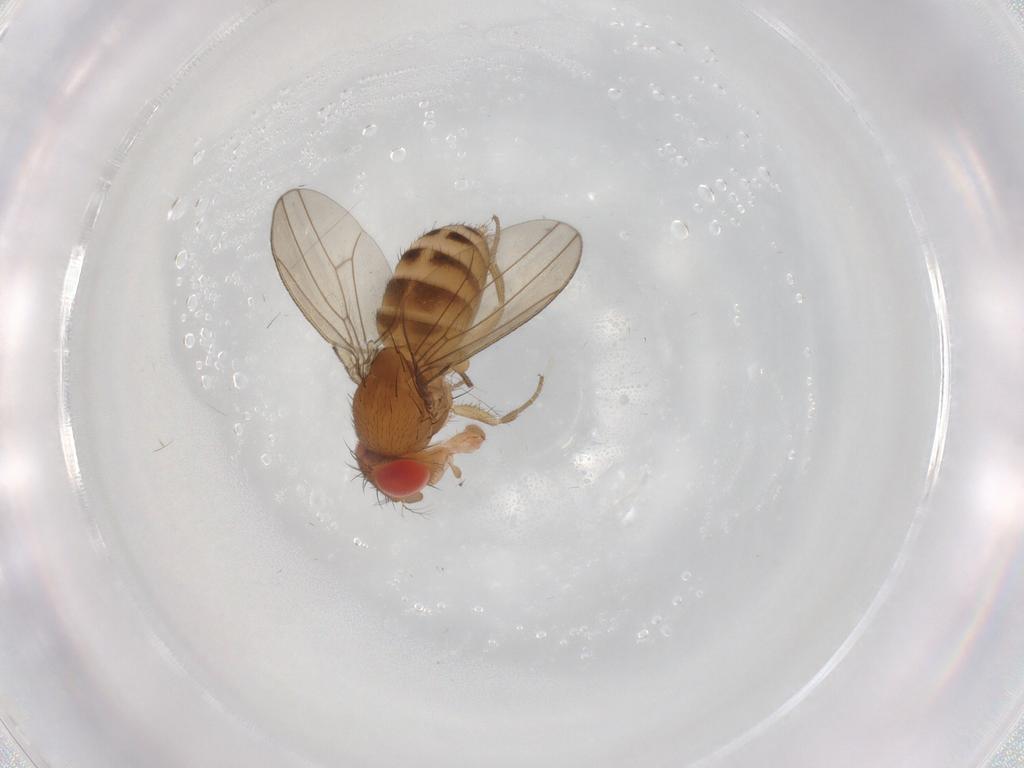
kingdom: Animalia
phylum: Arthropoda
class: Insecta
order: Diptera
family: Drosophilidae
